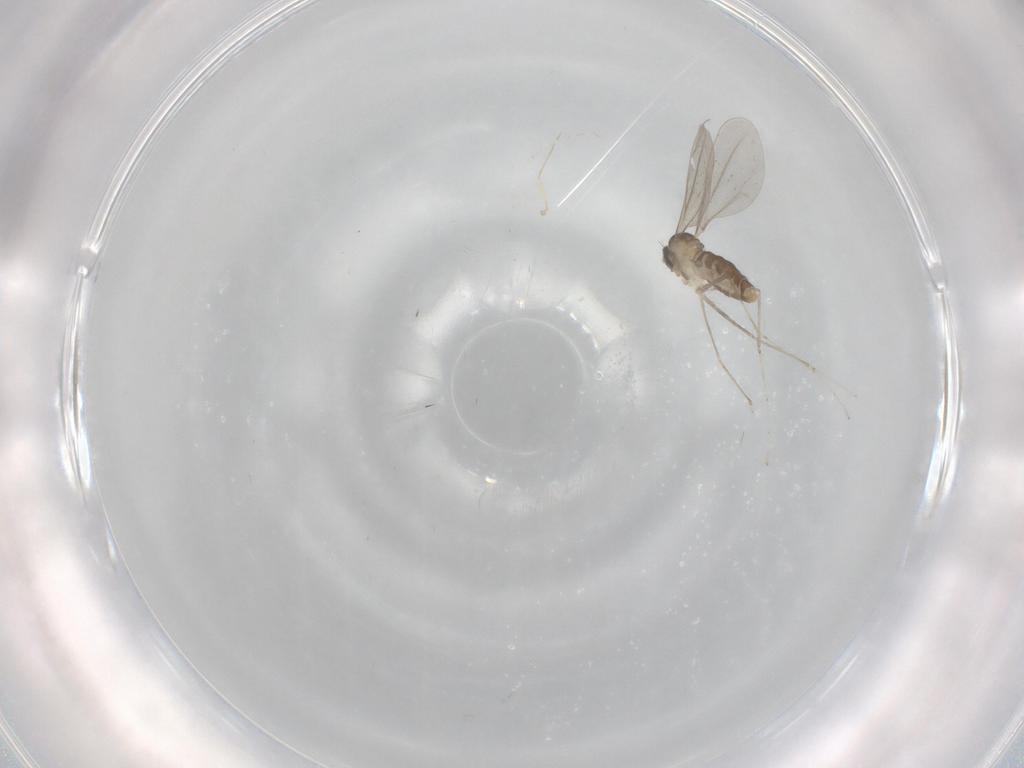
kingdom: Animalia
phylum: Arthropoda
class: Insecta
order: Diptera
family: Cecidomyiidae
